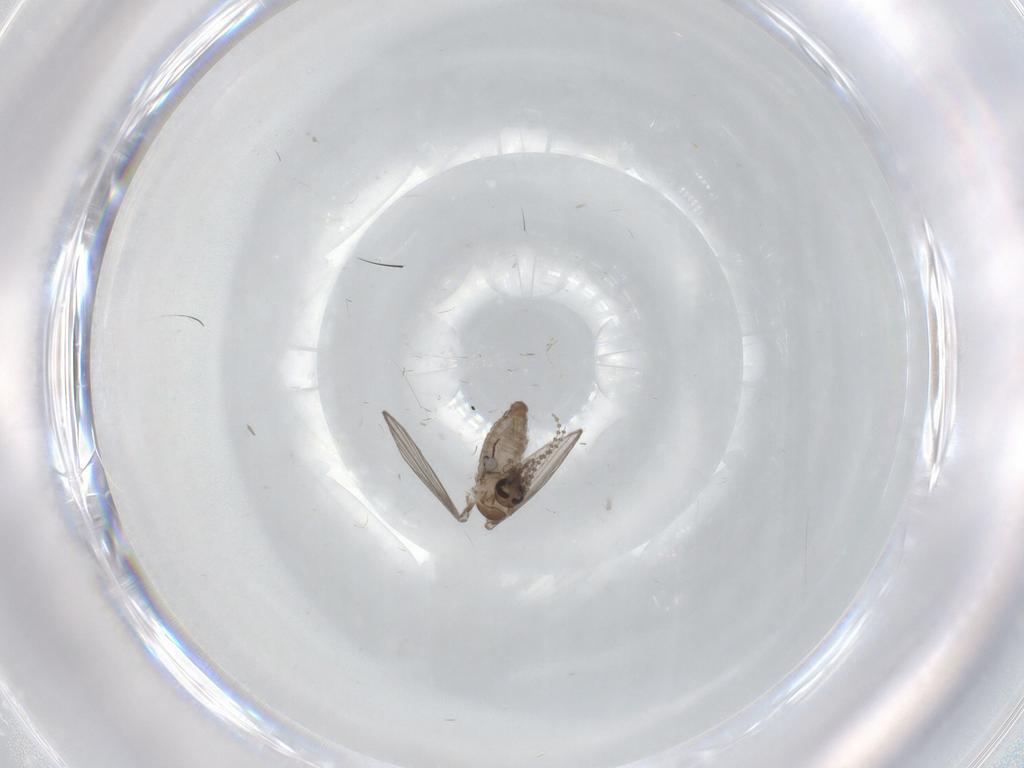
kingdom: Animalia
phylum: Arthropoda
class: Insecta
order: Diptera
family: Psychodidae
